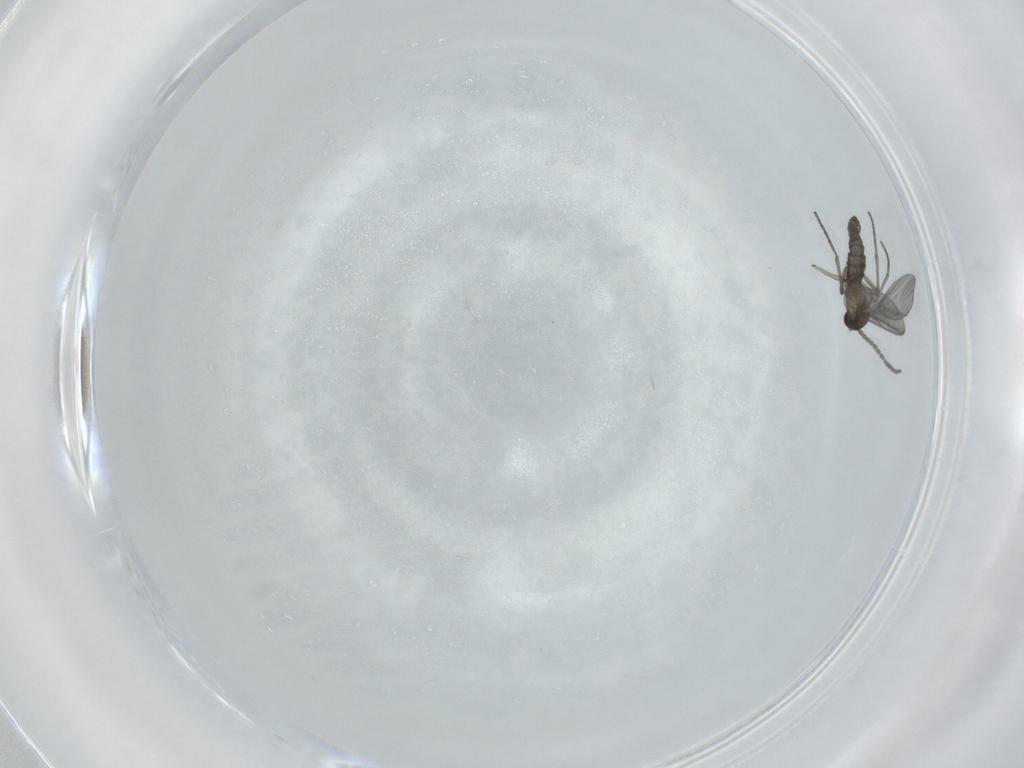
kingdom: Animalia
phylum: Arthropoda
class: Insecta
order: Diptera
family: Sciaridae
